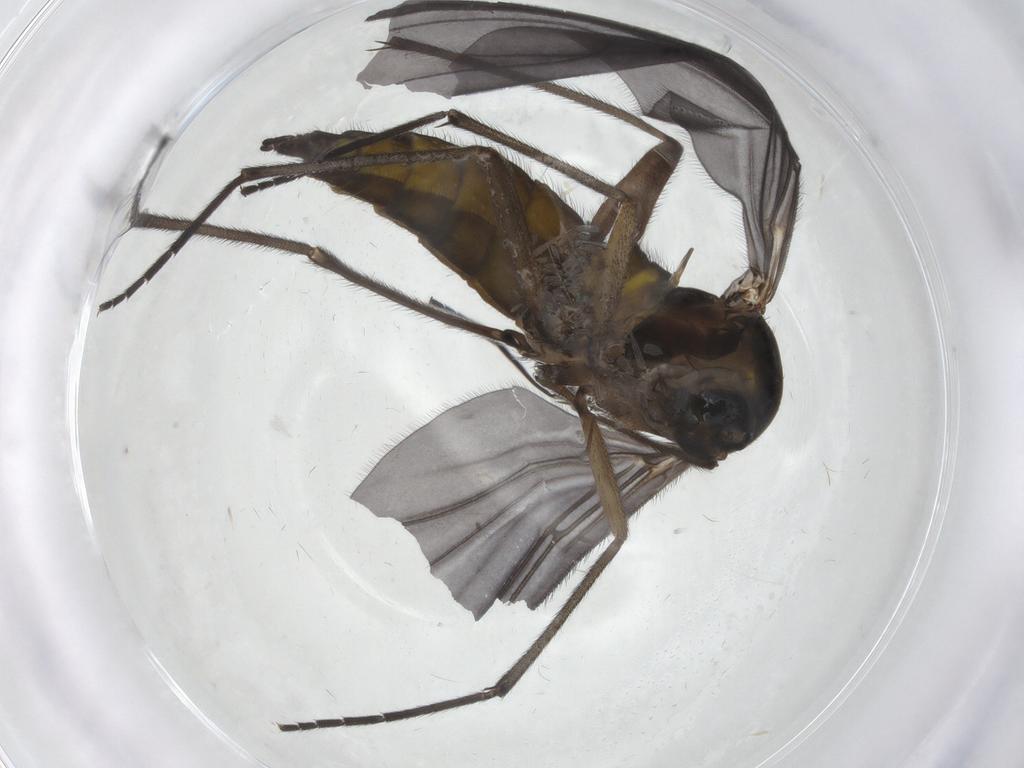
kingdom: Animalia
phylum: Arthropoda
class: Insecta
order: Diptera
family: Sciaridae
